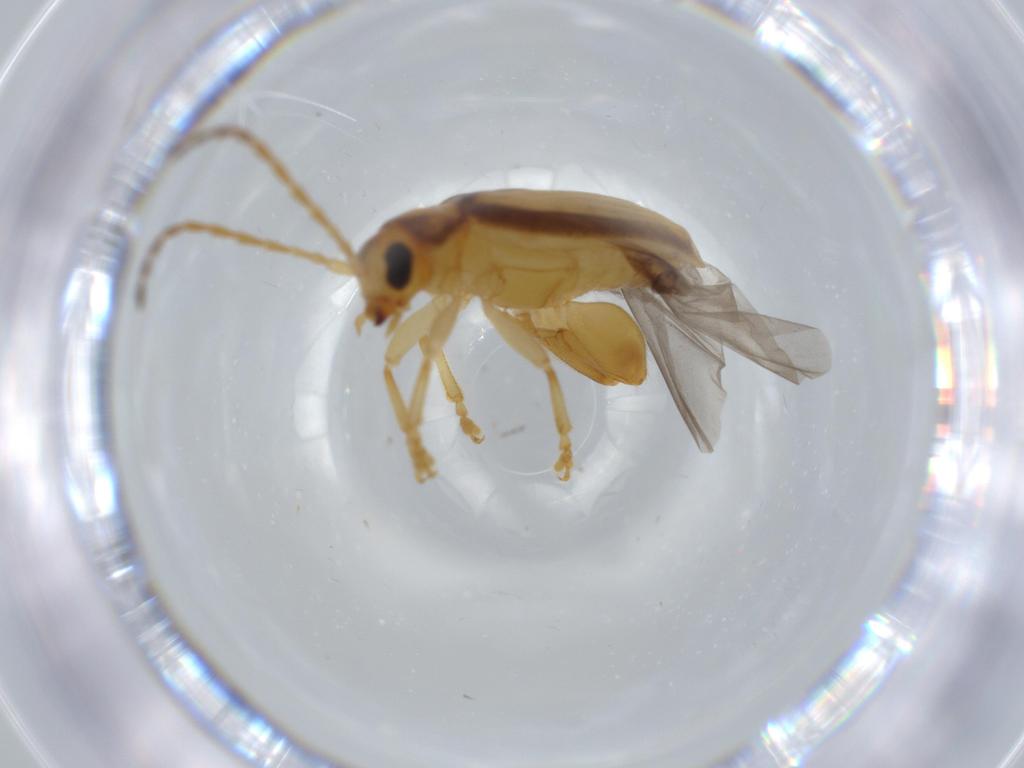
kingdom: Animalia
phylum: Arthropoda
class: Insecta
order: Coleoptera
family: Chrysomelidae
